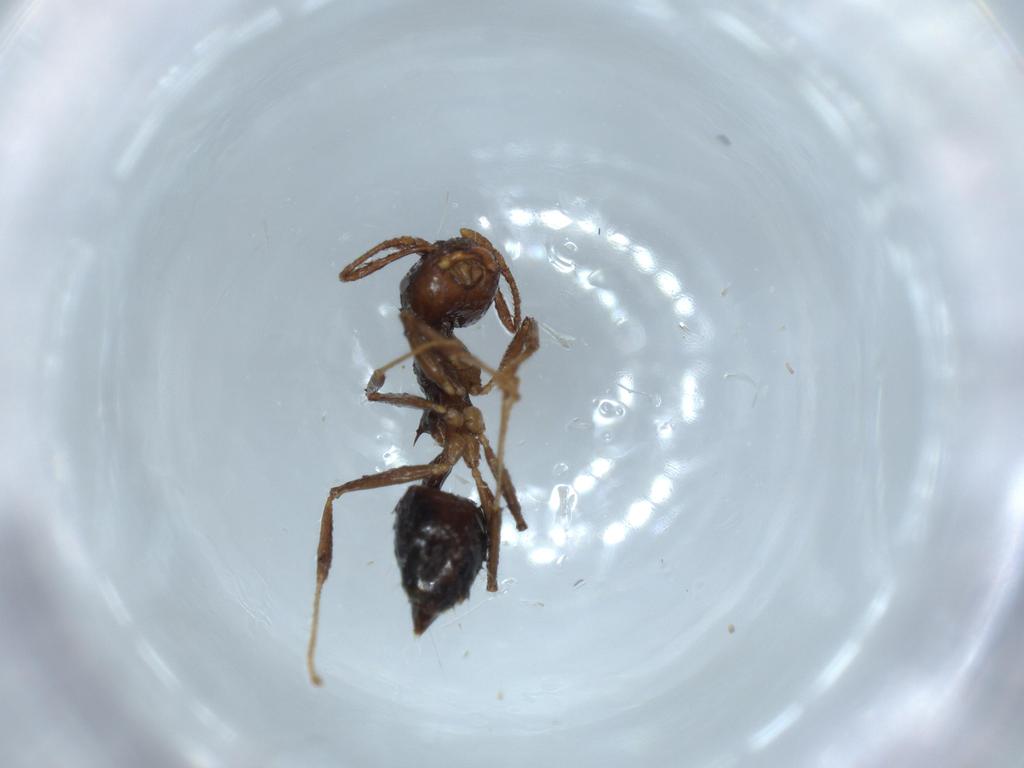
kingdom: Animalia
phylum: Arthropoda
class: Insecta
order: Hymenoptera
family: Formicidae
